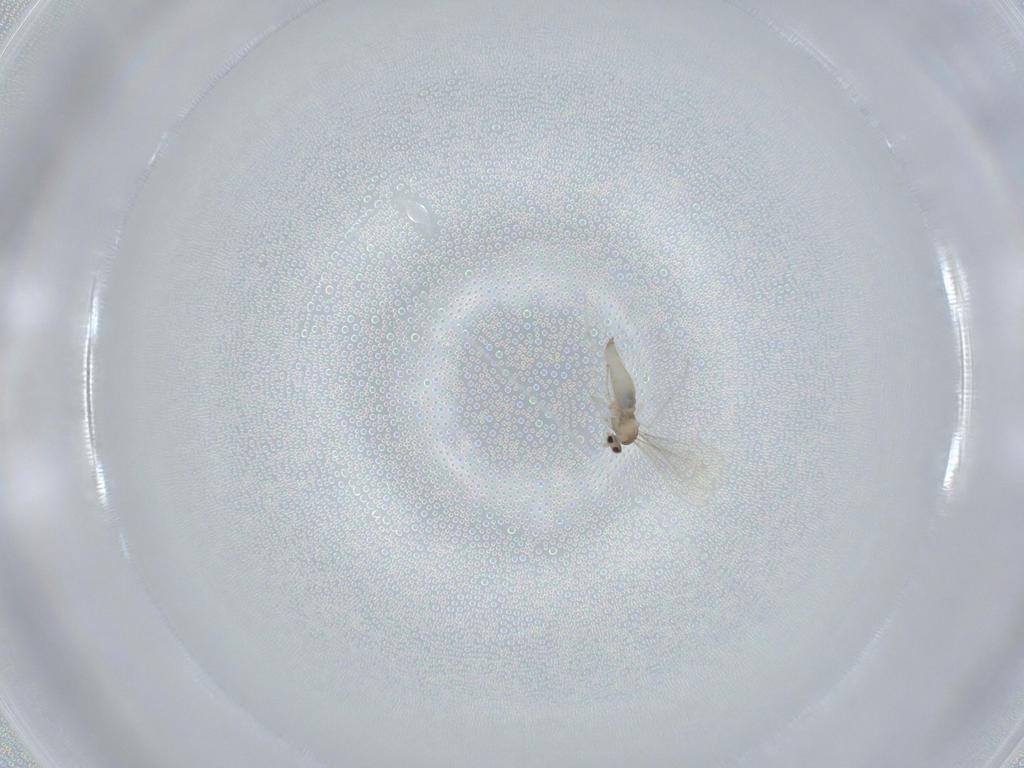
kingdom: Animalia
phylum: Arthropoda
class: Insecta
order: Diptera
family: Cecidomyiidae
